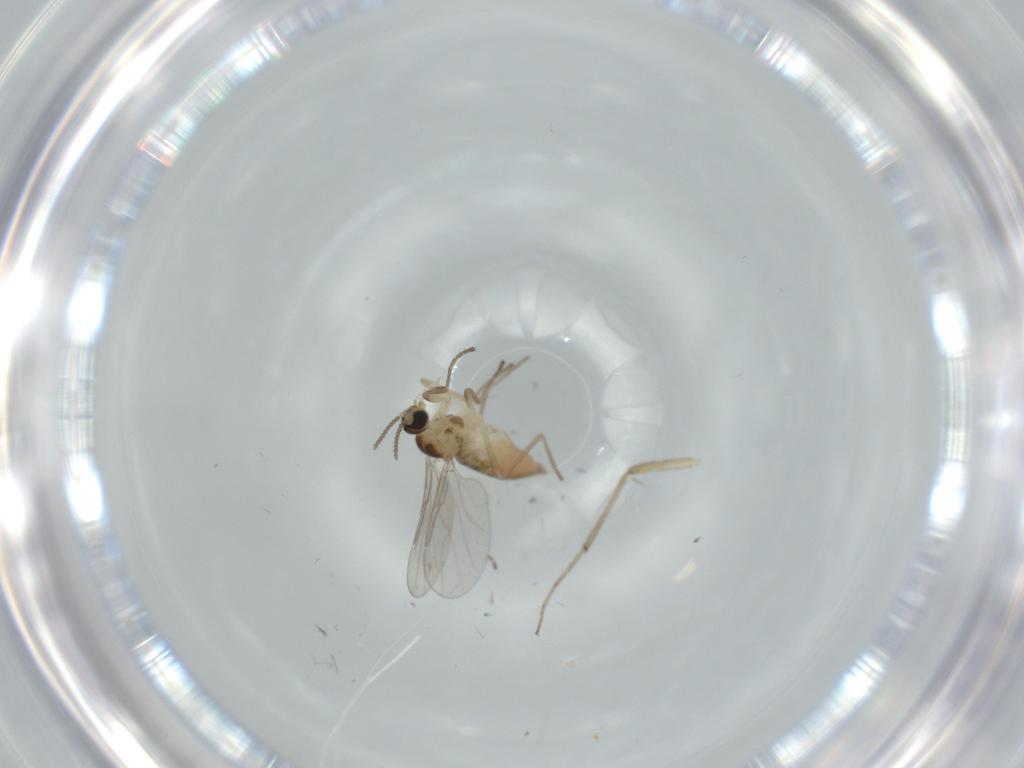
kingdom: Animalia
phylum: Arthropoda
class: Insecta
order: Diptera
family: Chironomidae
